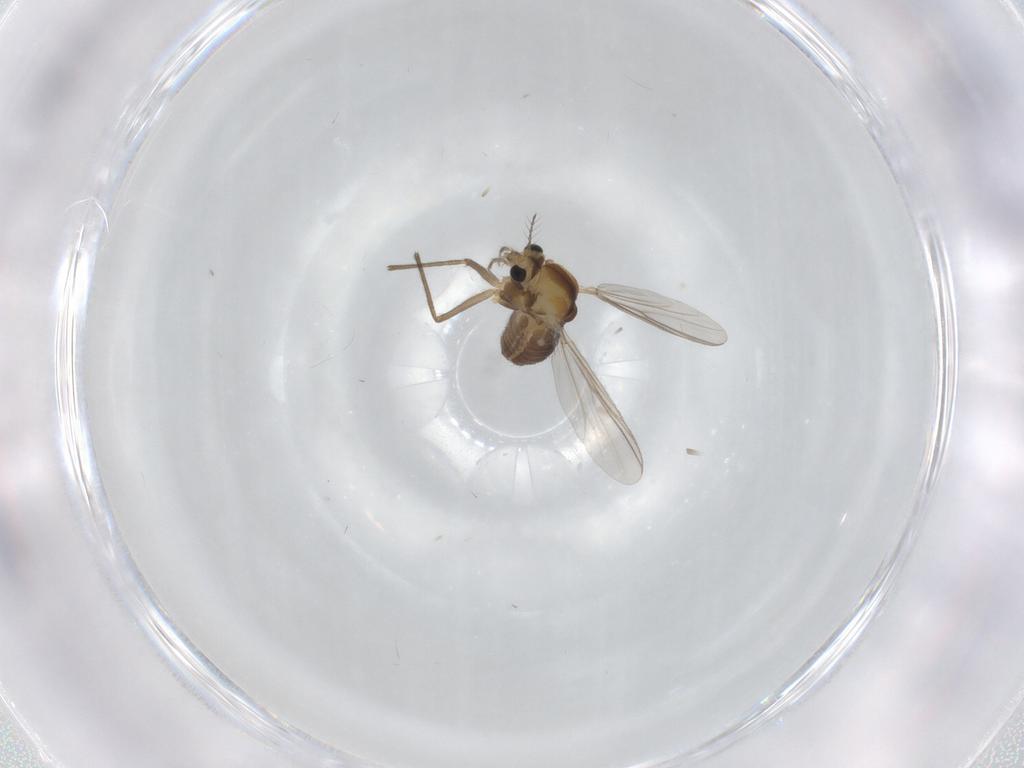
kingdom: Animalia
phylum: Arthropoda
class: Insecta
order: Diptera
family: Chironomidae
